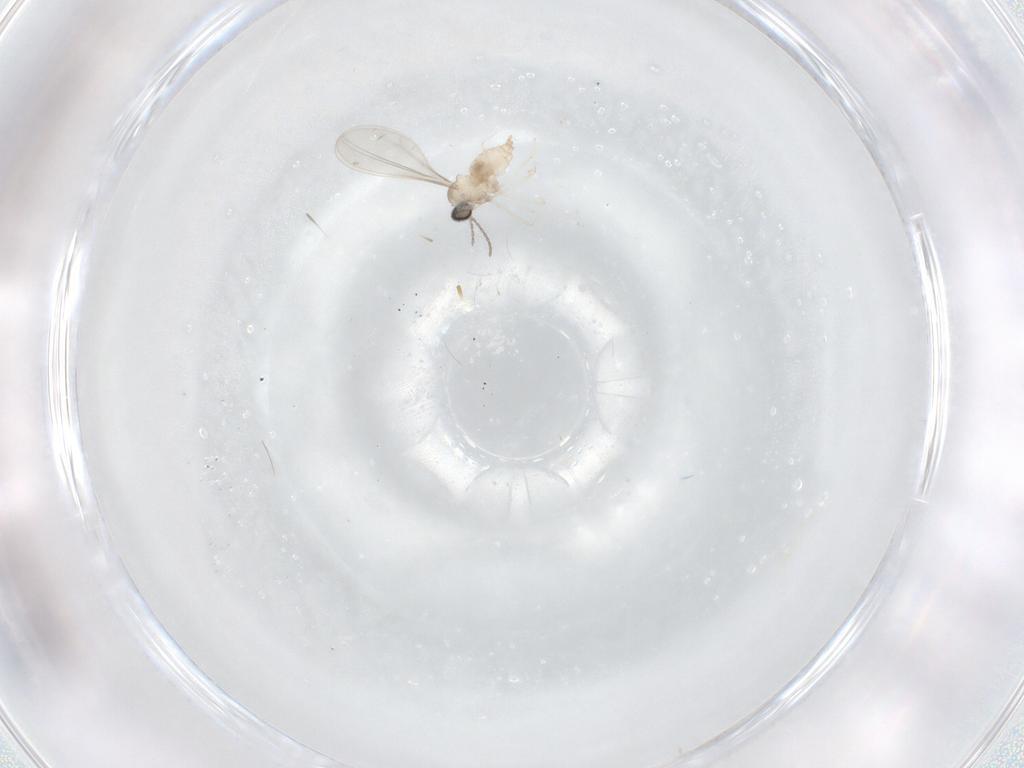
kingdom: Animalia
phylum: Arthropoda
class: Insecta
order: Diptera
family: Cecidomyiidae
